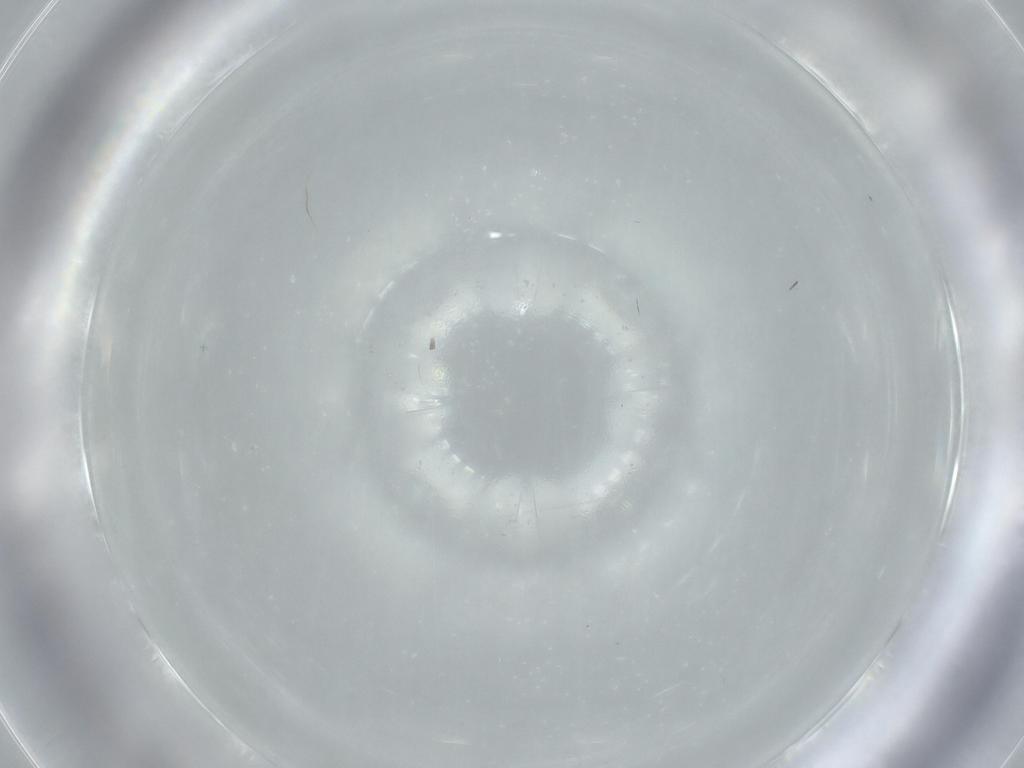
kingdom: Animalia
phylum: Arthropoda
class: Insecta
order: Hymenoptera
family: Mymaridae
